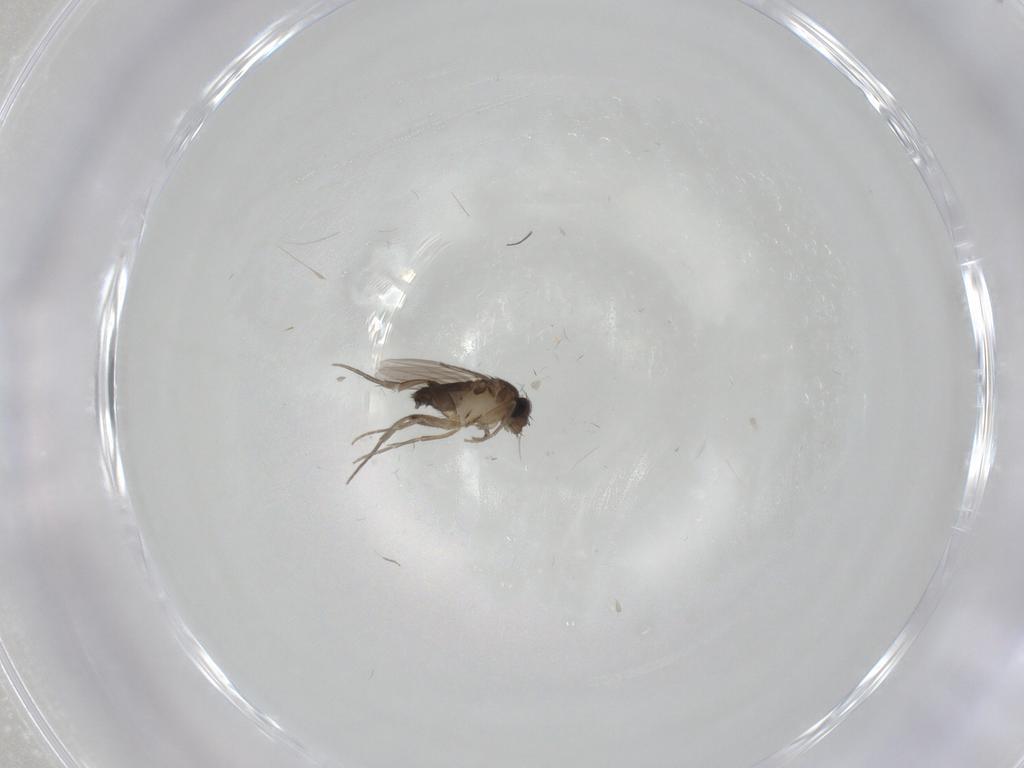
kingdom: Animalia
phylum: Arthropoda
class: Insecta
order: Diptera
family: Phoridae
